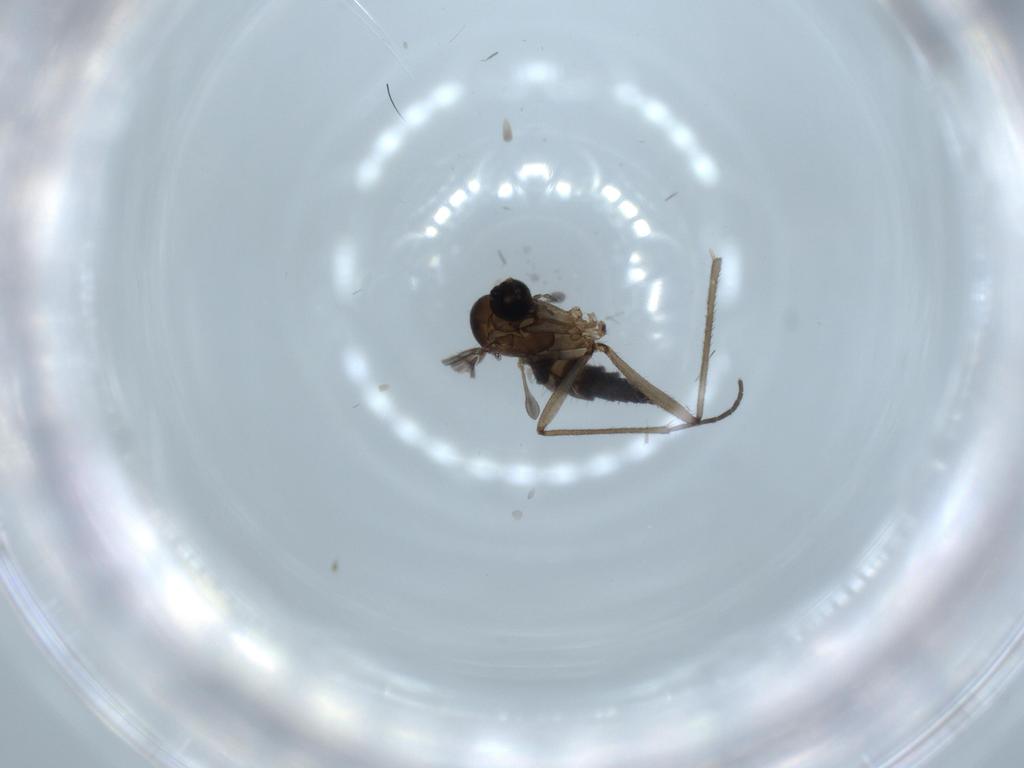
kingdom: Animalia
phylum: Arthropoda
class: Insecta
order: Diptera
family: Sciaridae
